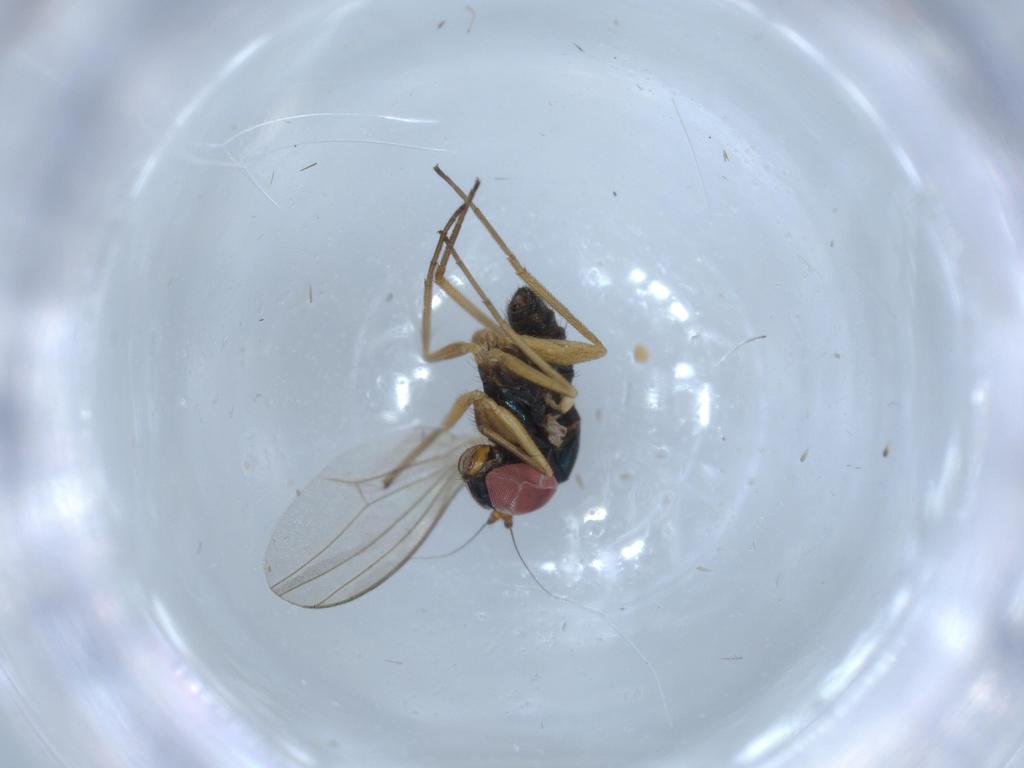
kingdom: Animalia
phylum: Arthropoda
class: Insecta
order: Diptera
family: Dolichopodidae
